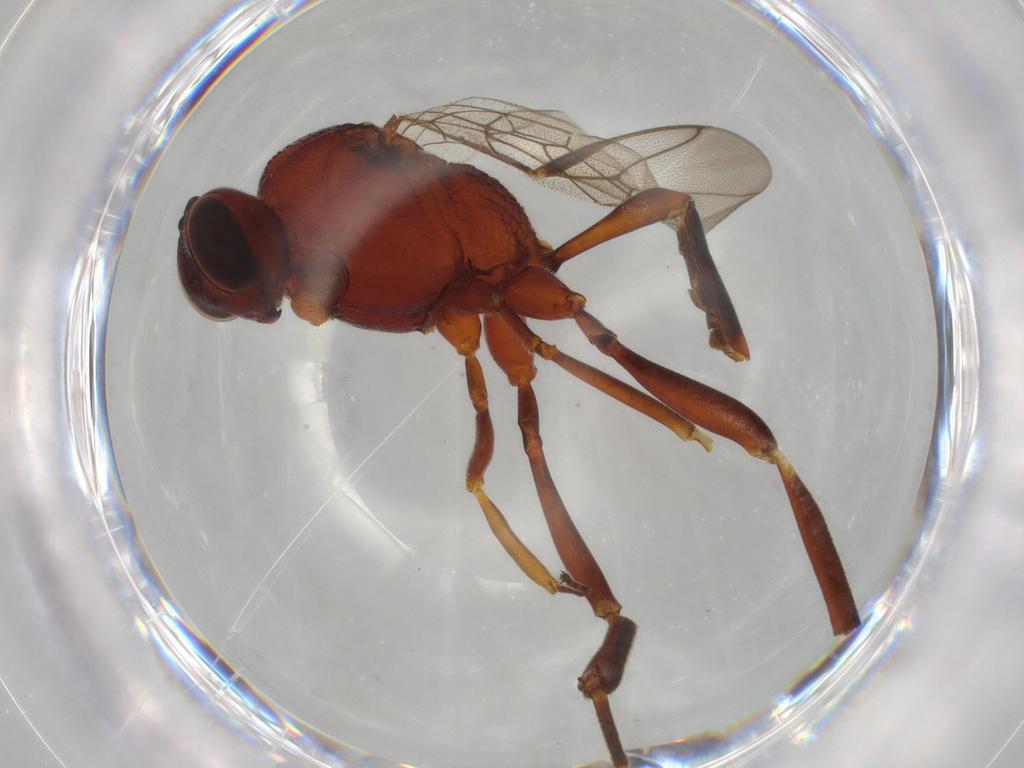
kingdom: Animalia
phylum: Arthropoda
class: Insecta
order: Hymenoptera
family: Ichneumonidae
